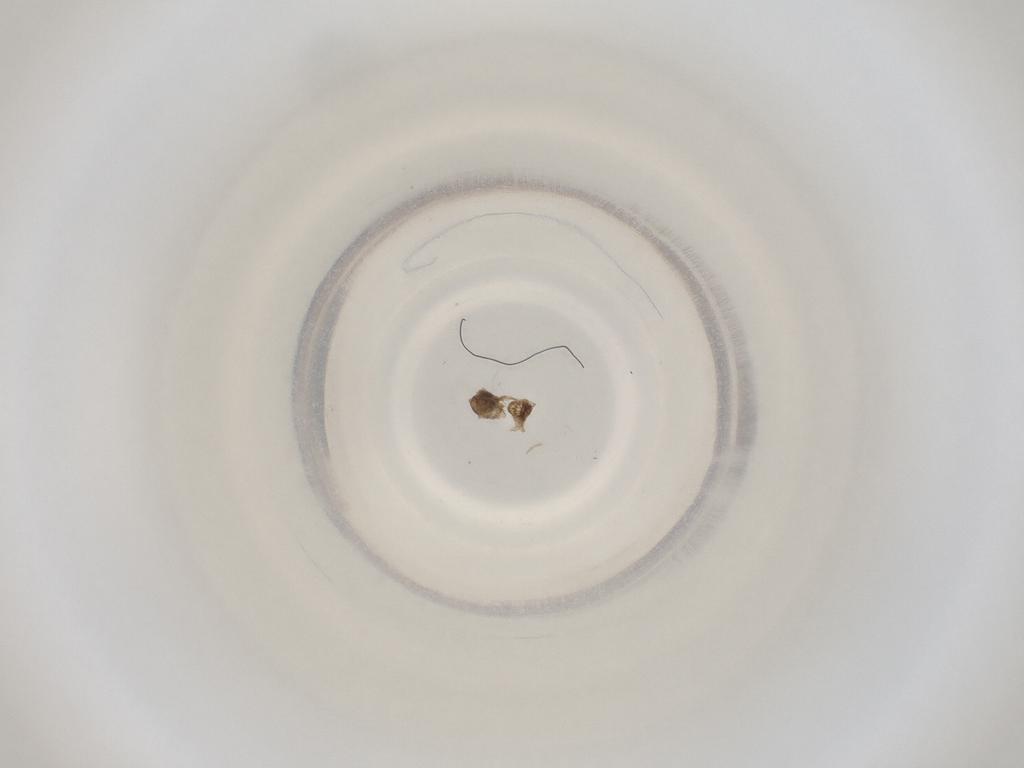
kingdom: Animalia
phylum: Arthropoda
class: Insecta
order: Diptera
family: Cecidomyiidae
